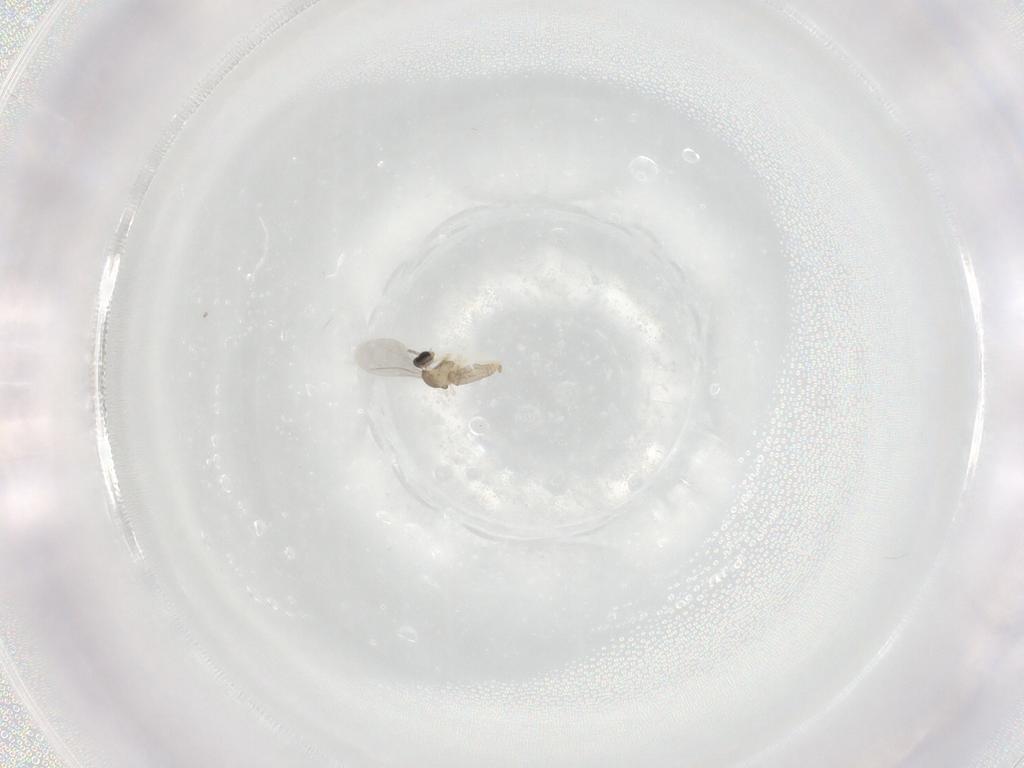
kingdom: Animalia
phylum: Arthropoda
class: Insecta
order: Diptera
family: Cecidomyiidae
